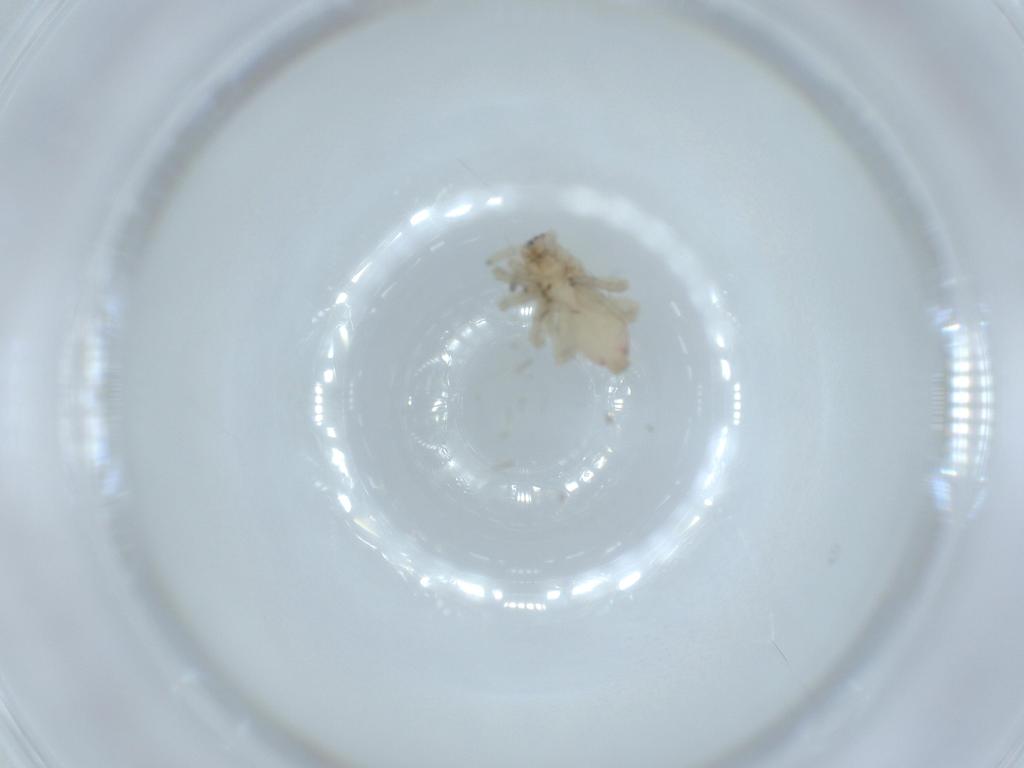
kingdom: Animalia
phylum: Arthropoda
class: Arachnida
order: Araneae
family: Clubionidae
